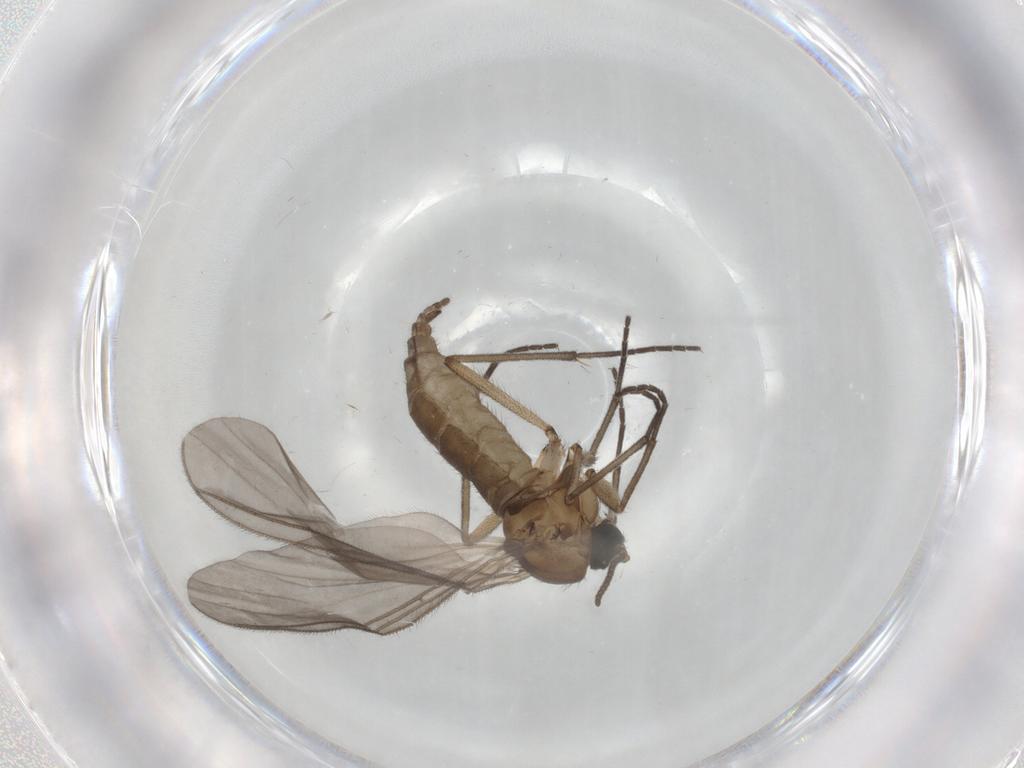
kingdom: Animalia
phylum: Arthropoda
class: Insecta
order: Diptera
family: Sciaridae
